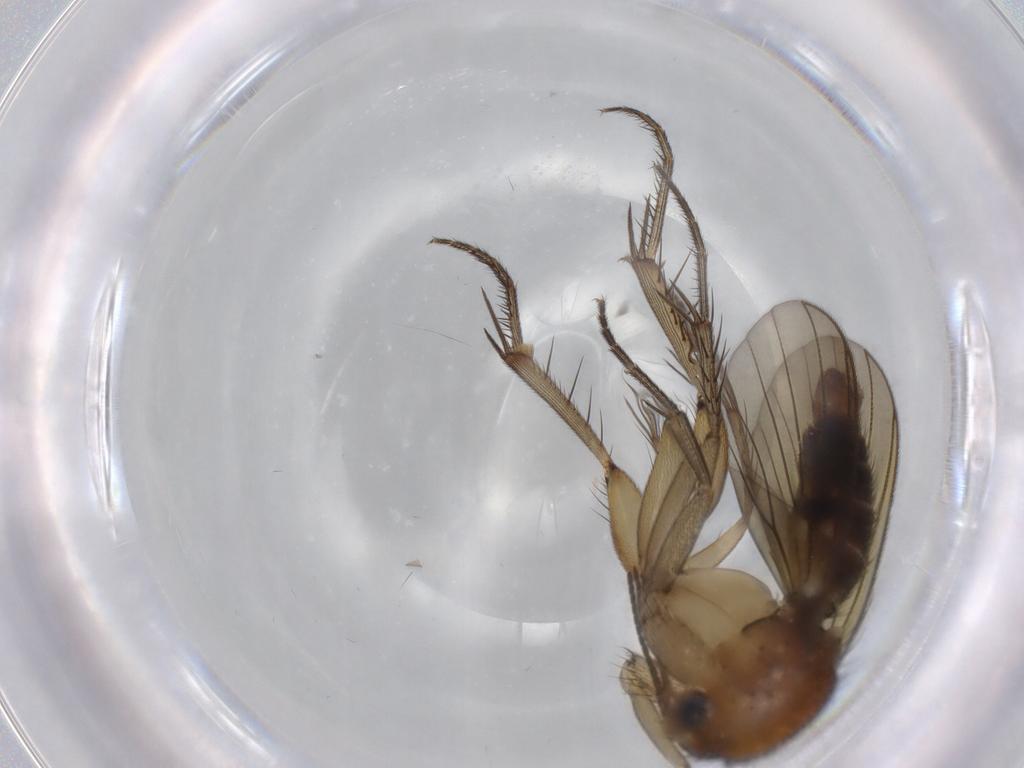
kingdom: Animalia
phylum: Arthropoda
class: Insecta
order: Diptera
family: Mycetophilidae
